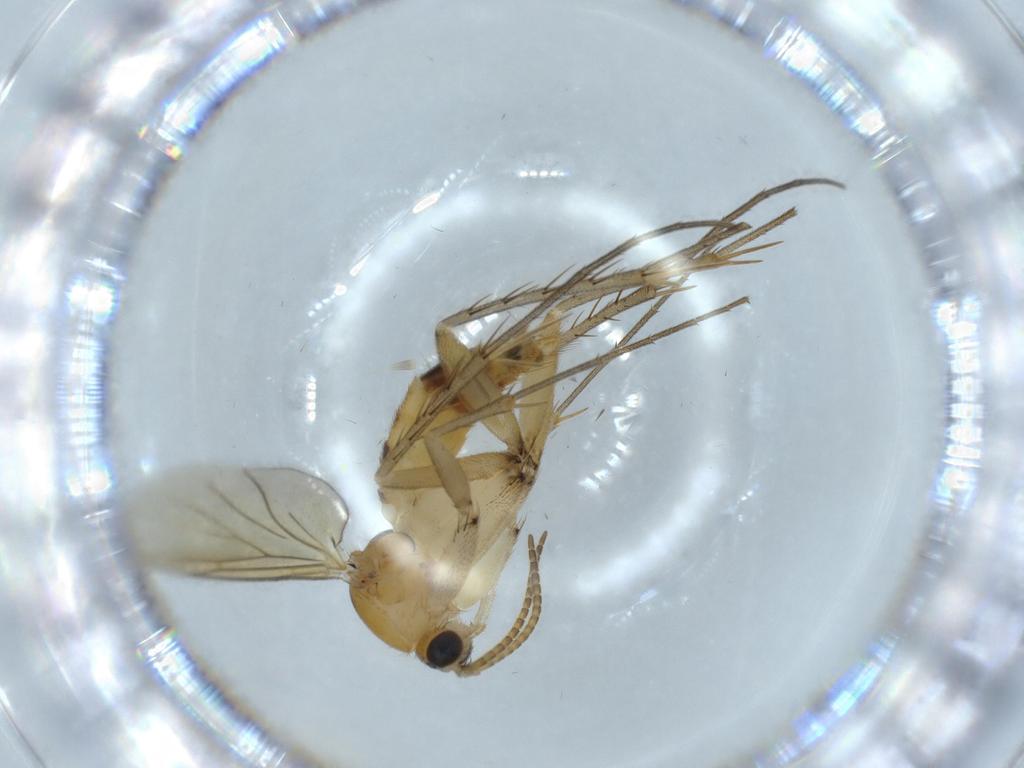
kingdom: Animalia
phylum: Arthropoda
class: Insecta
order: Diptera
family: Mycetophilidae
